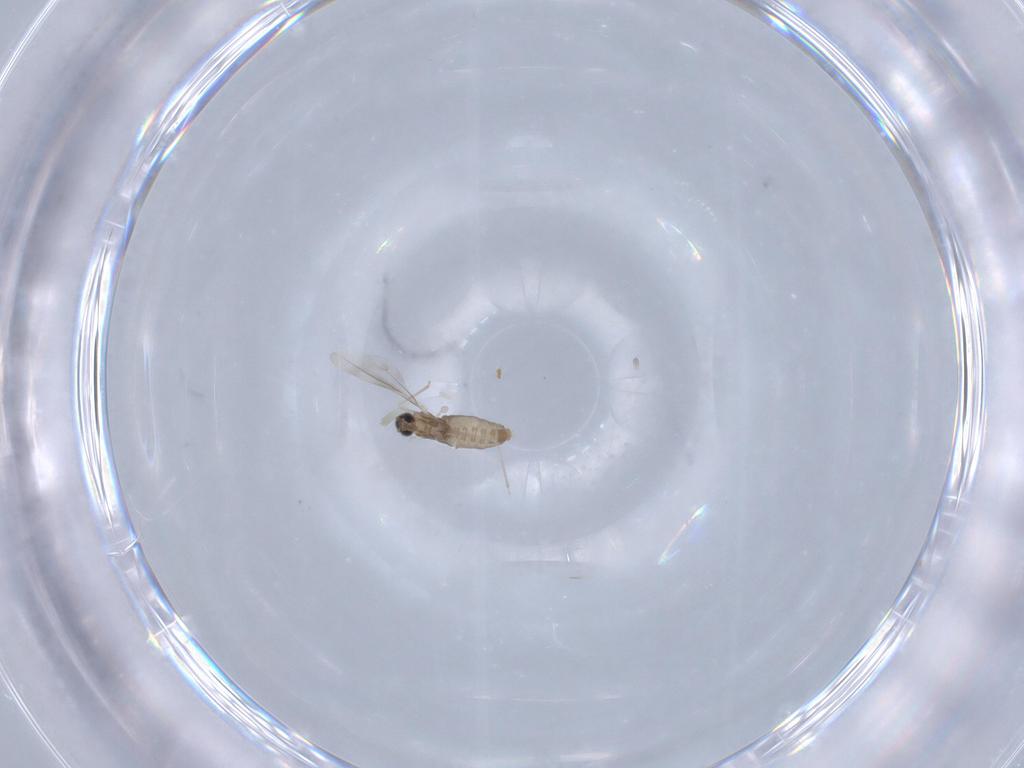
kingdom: Animalia
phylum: Arthropoda
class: Insecta
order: Diptera
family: Cecidomyiidae
